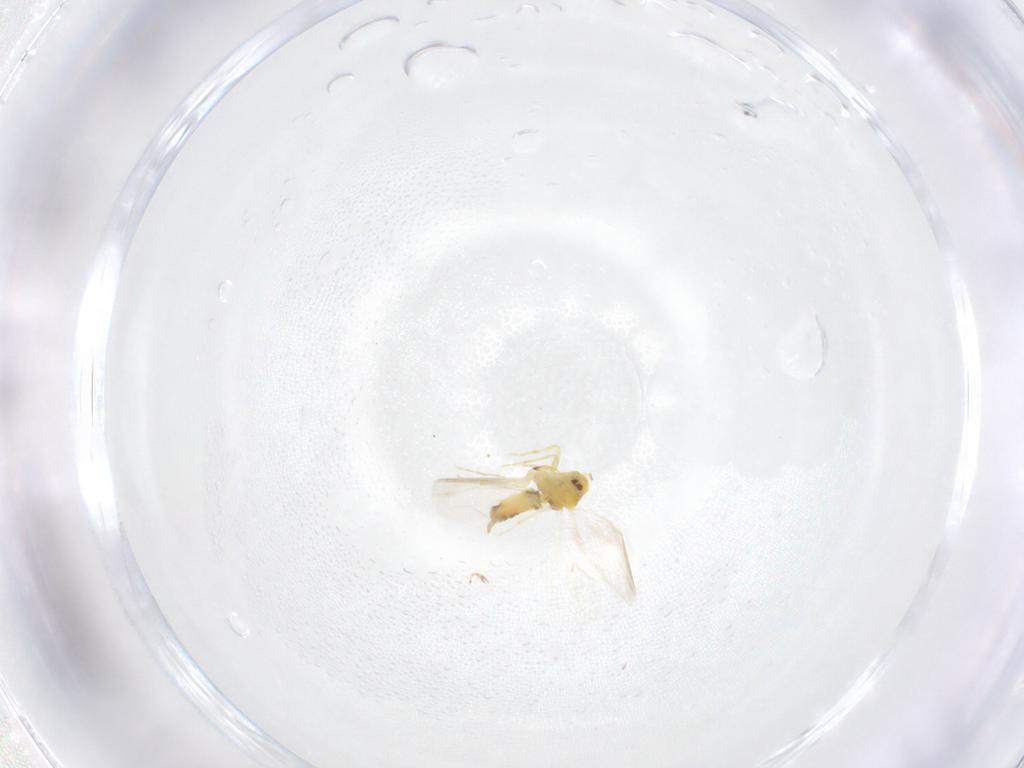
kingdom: Animalia
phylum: Arthropoda
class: Insecta
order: Hemiptera
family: Aleyrodidae
